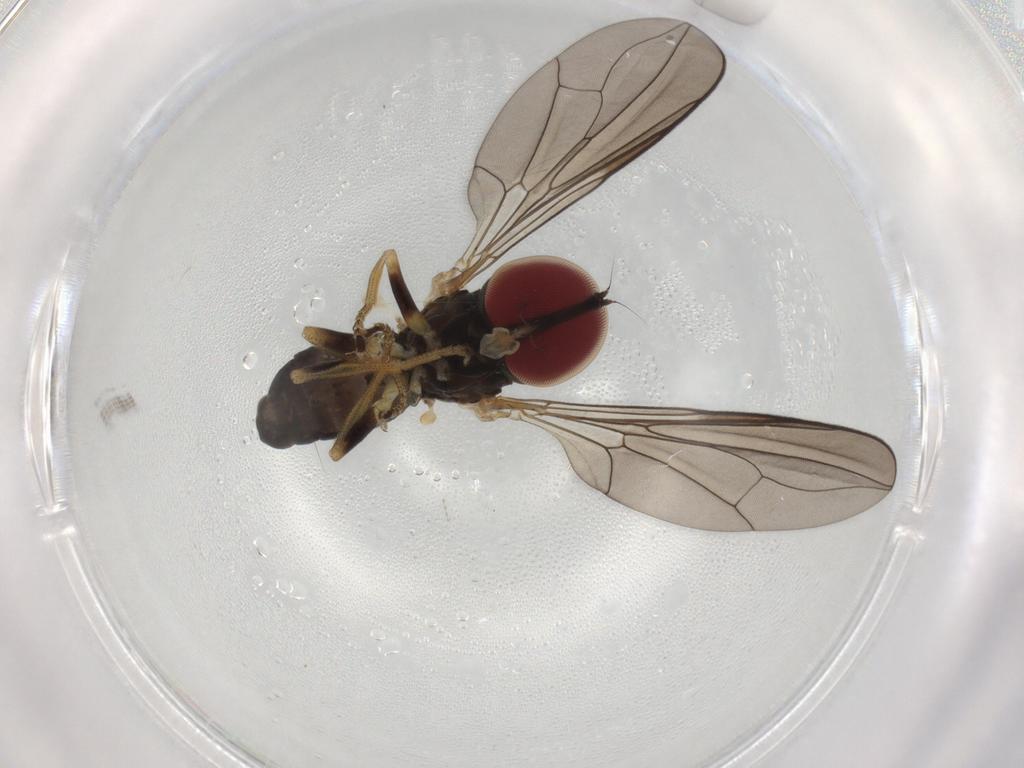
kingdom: Animalia
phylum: Arthropoda
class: Insecta
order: Diptera
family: Pipunculidae
